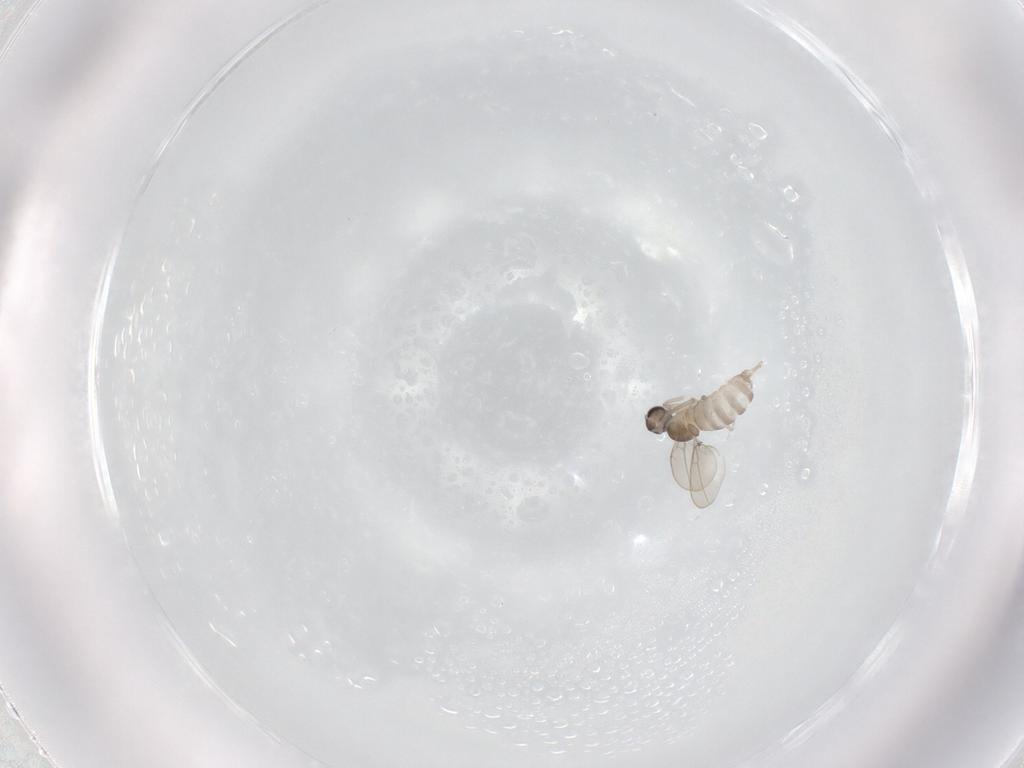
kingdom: Animalia
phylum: Arthropoda
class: Insecta
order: Diptera
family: Cecidomyiidae
